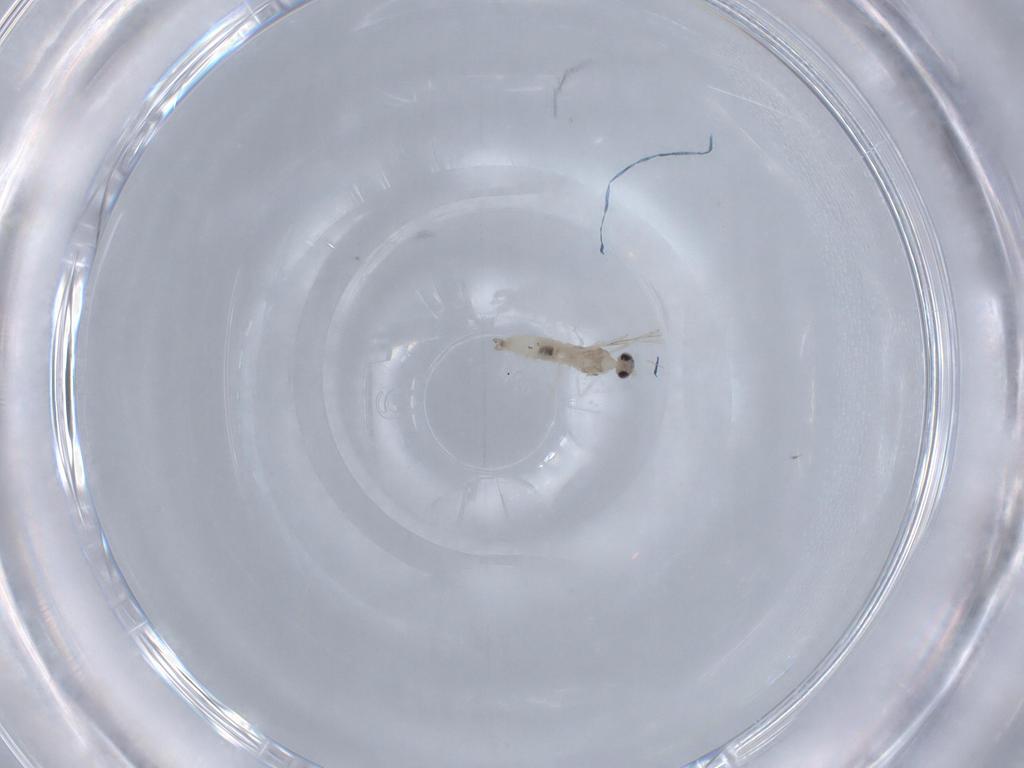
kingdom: Animalia
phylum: Arthropoda
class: Insecta
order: Diptera
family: Cecidomyiidae
